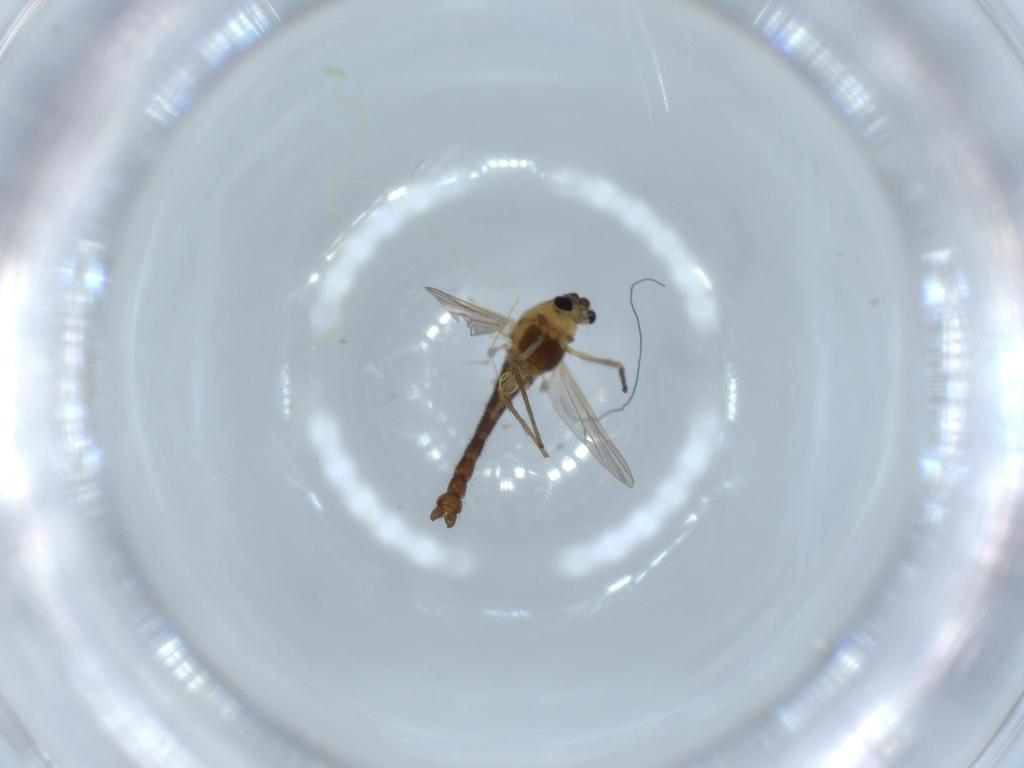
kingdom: Animalia
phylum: Arthropoda
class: Insecta
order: Diptera
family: Chironomidae
